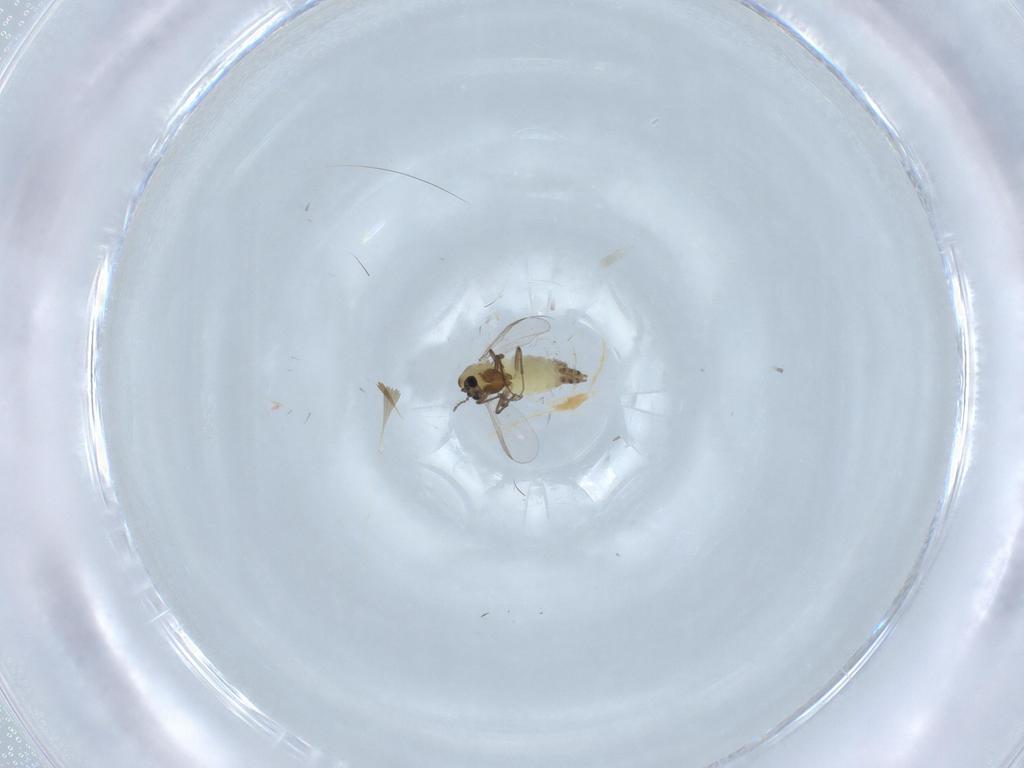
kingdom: Animalia
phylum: Arthropoda
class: Insecta
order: Diptera
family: Chironomidae
